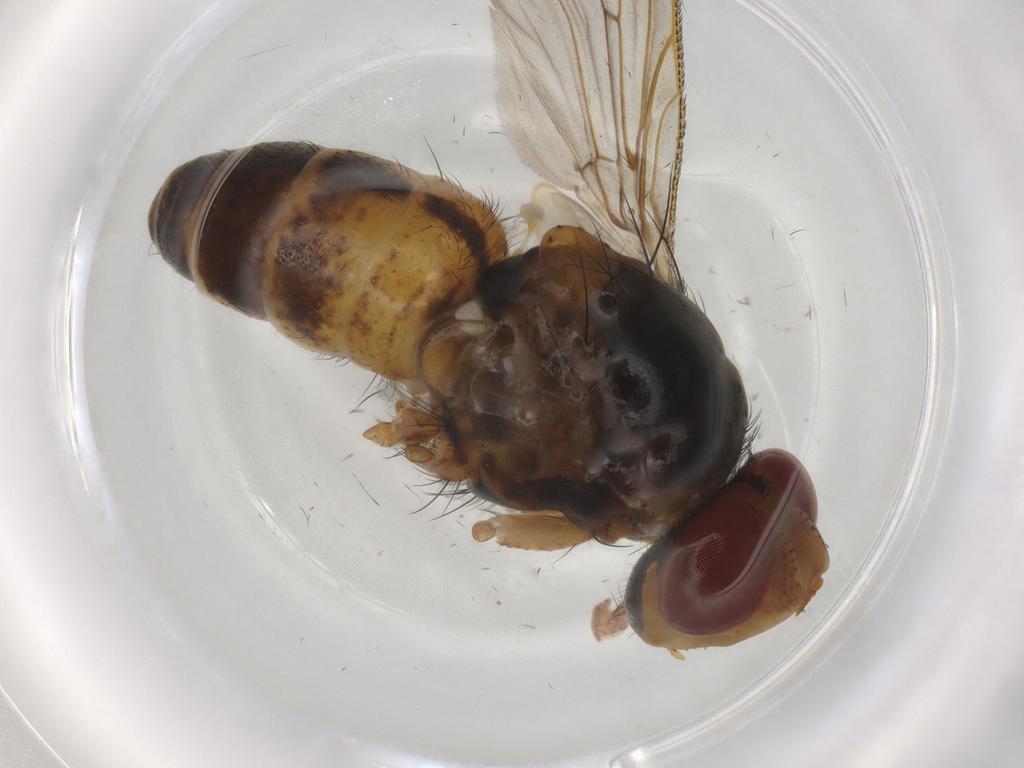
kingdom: Animalia
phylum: Arthropoda
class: Insecta
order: Diptera
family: Tachinidae
